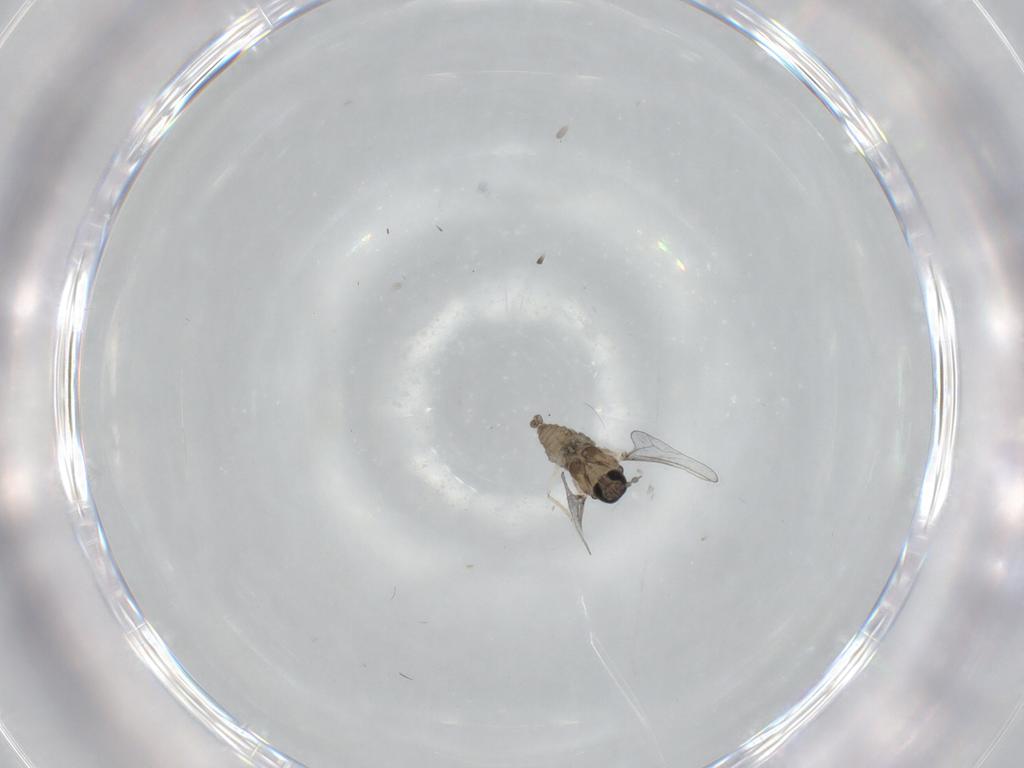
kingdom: Animalia
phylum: Arthropoda
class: Insecta
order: Diptera
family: Cecidomyiidae
